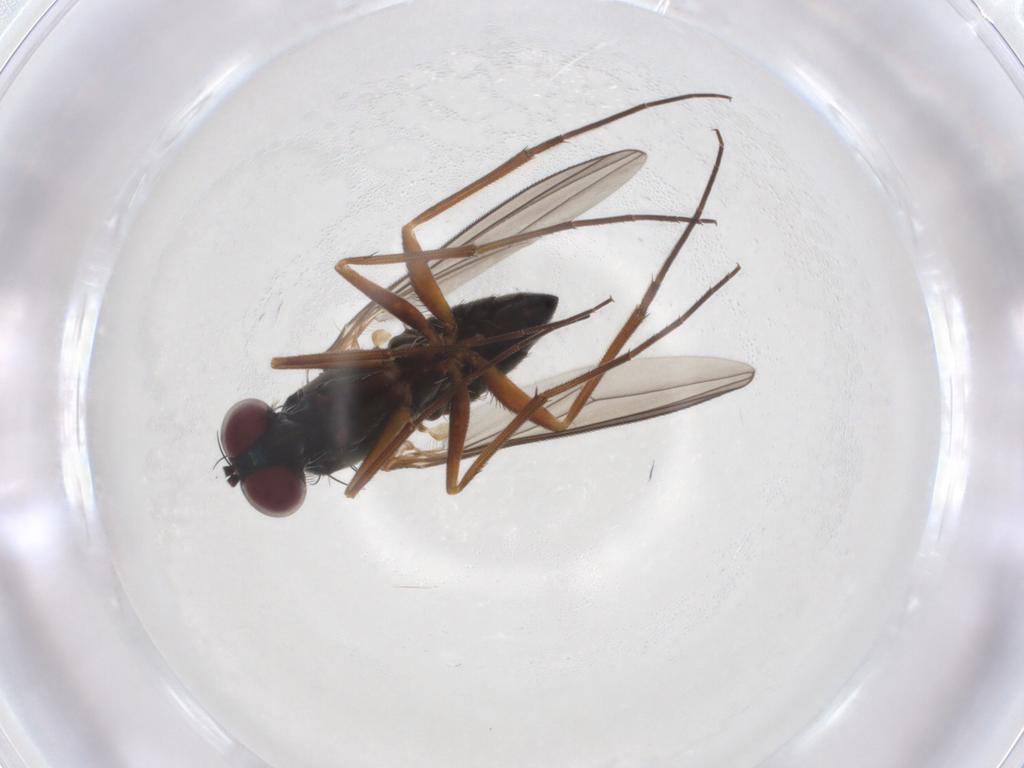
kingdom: Animalia
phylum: Arthropoda
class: Insecta
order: Diptera
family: Dolichopodidae
